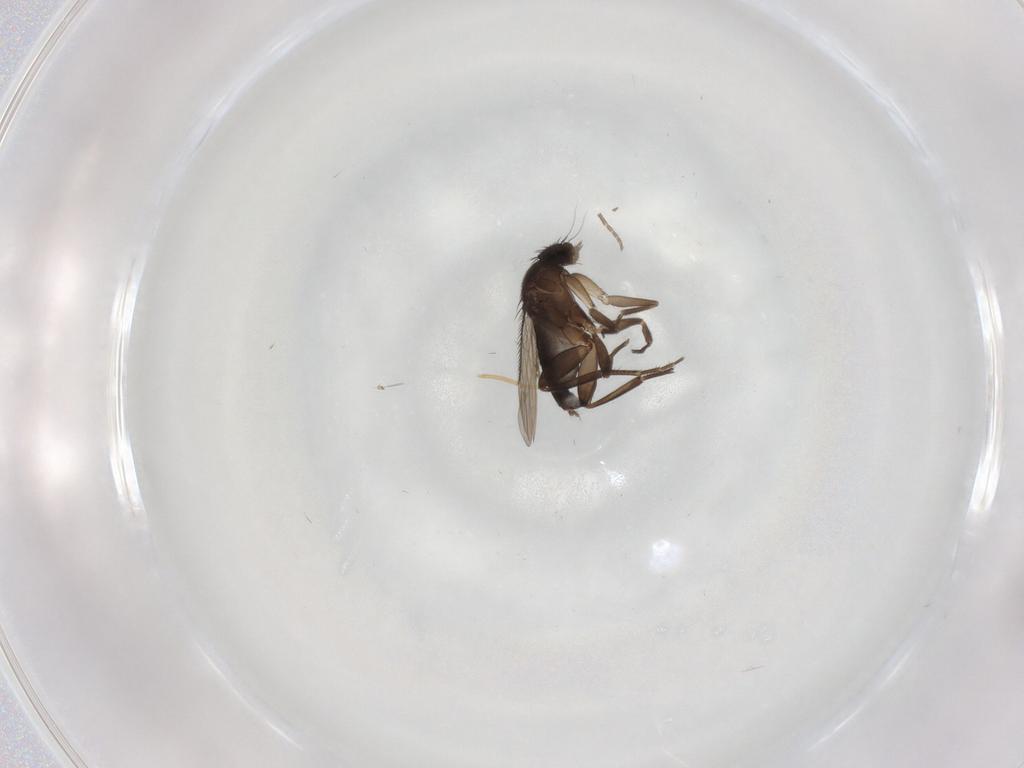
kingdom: Animalia
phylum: Arthropoda
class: Insecta
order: Diptera
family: Phoridae
